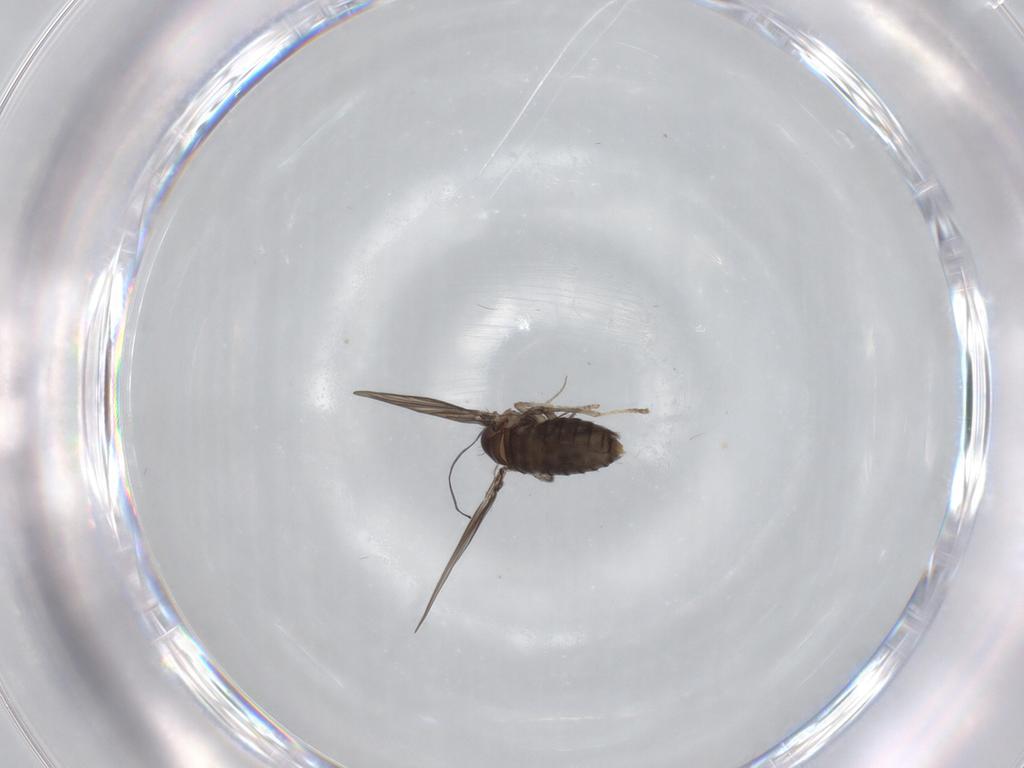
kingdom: Animalia
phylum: Arthropoda
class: Insecta
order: Diptera
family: Psychodidae
